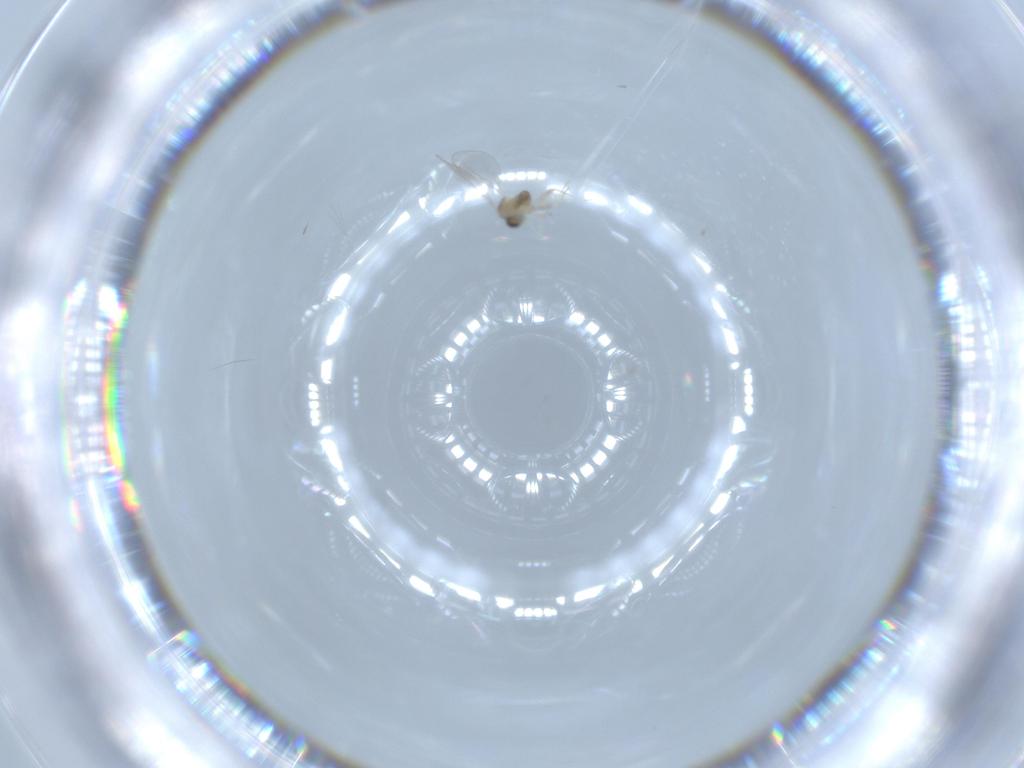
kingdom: Animalia
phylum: Arthropoda
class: Insecta
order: Diptera
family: Cecidomyiidae
